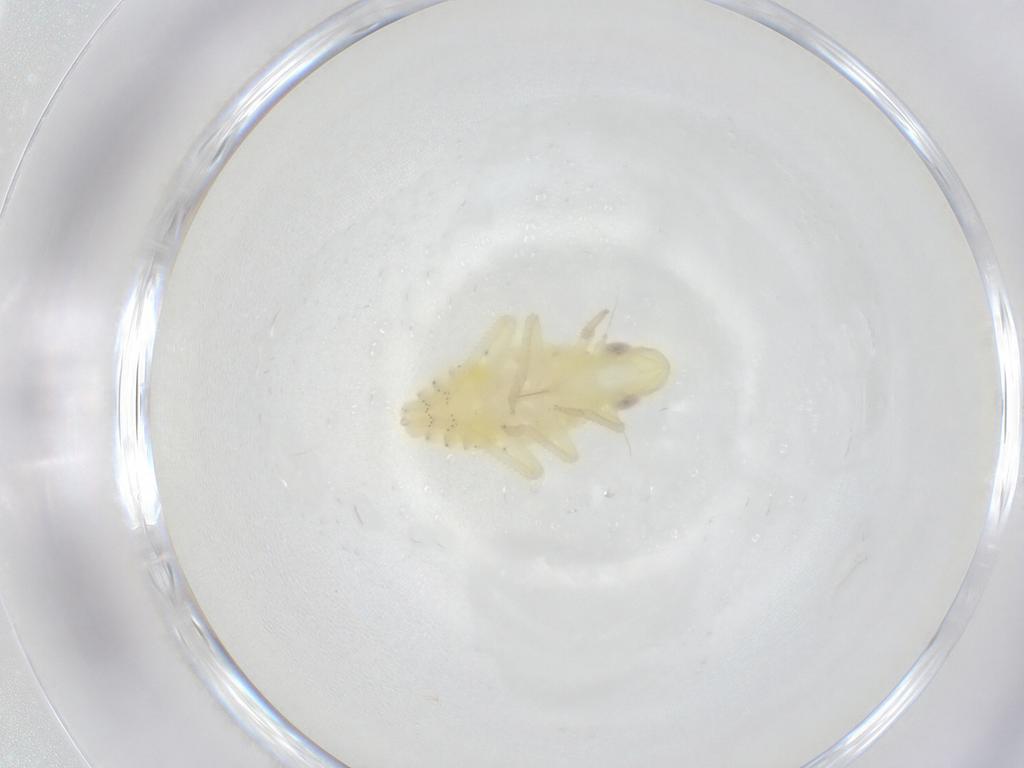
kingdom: Animalia
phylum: Arthropoda
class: Insecta
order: Hemiptera
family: Tropiduchidae
